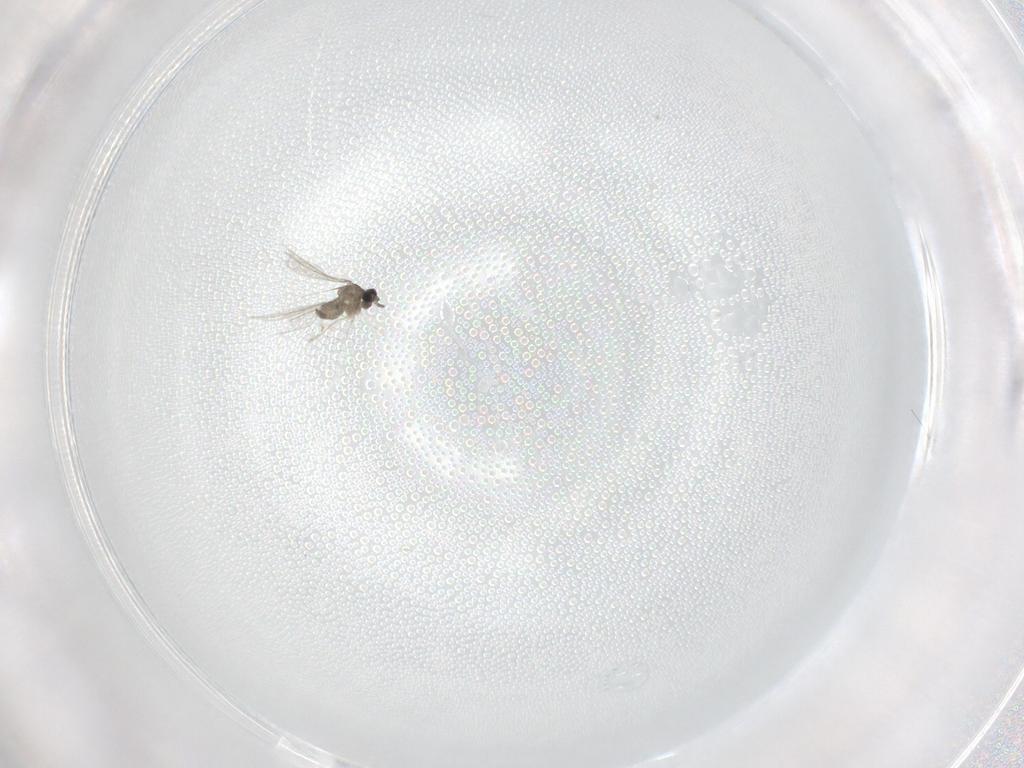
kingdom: Animalia
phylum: Arthropoda
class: Insecta
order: Diptera
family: Cecidomyiidae
